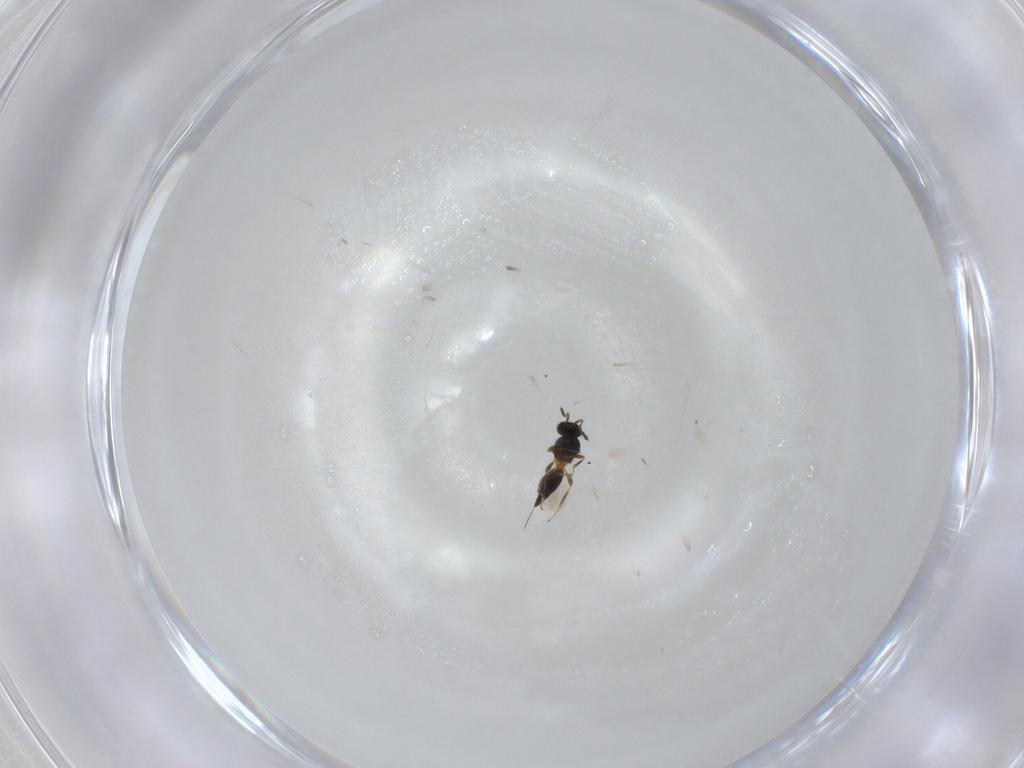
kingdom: Animalia
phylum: Arthropoda
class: Insecta
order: Hymenoptera
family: Platygastridae
